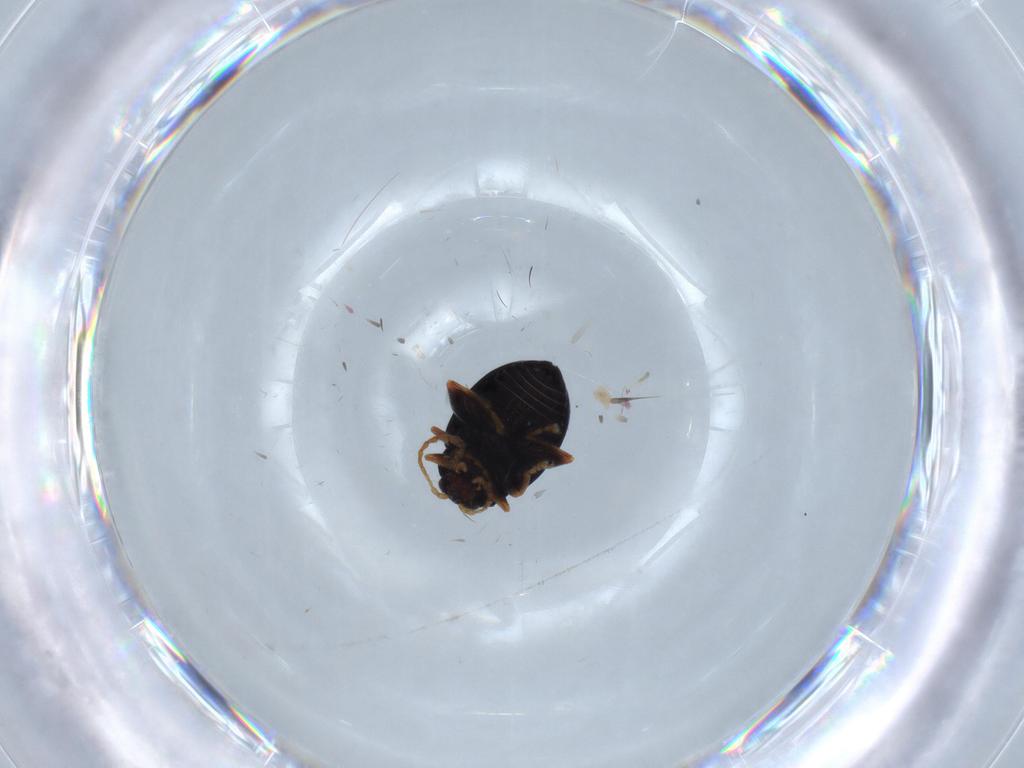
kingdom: Animalia
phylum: Arthropoda
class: Insecta
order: Coleoptera
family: Chrysomelidae
